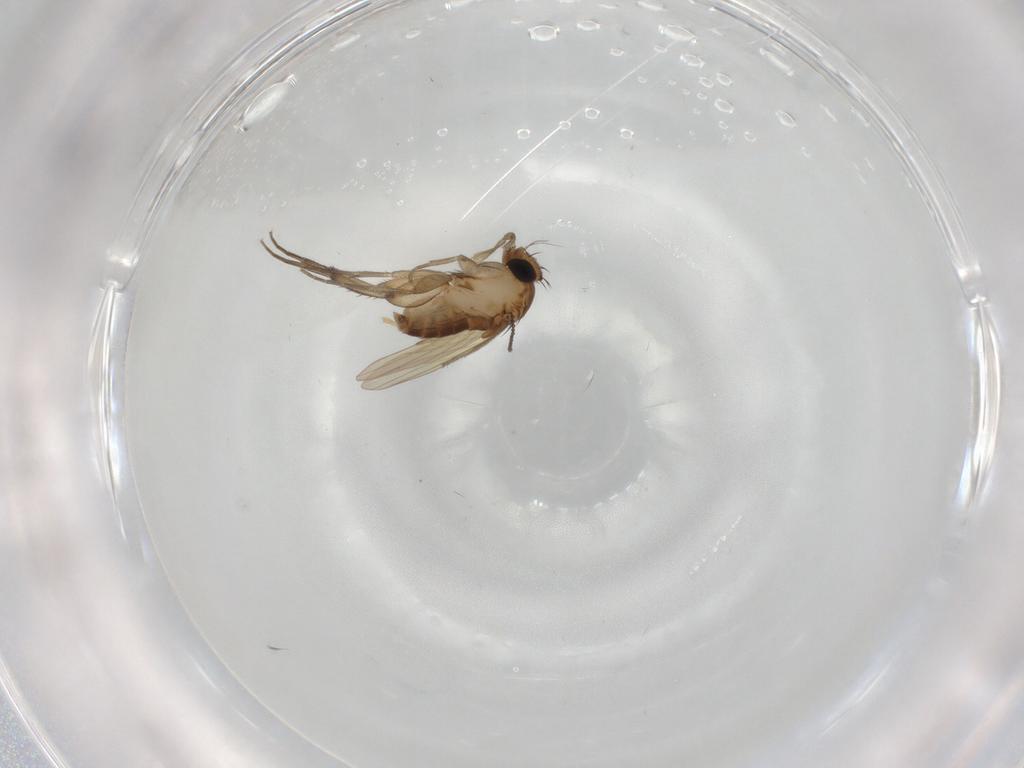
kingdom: Animalia
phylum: Arthropoda
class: Insecta
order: Diptera
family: Phoridae
